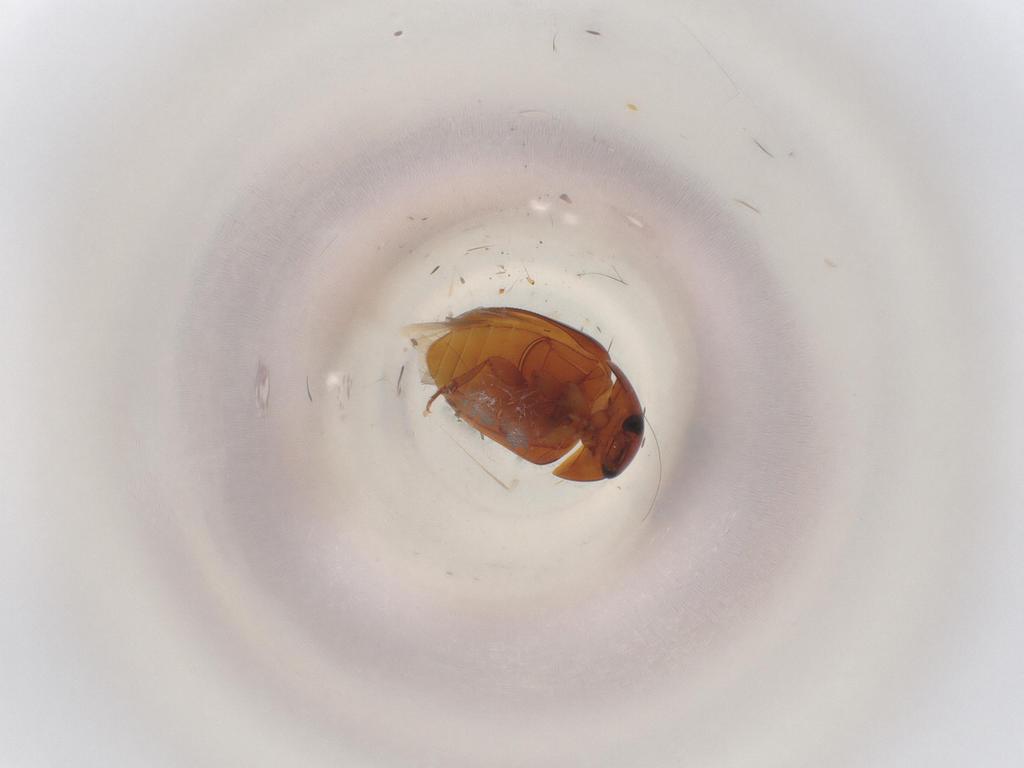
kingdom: Animalia
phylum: Arthropoda
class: Insecta
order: Coleoptera
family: Phalacridae
